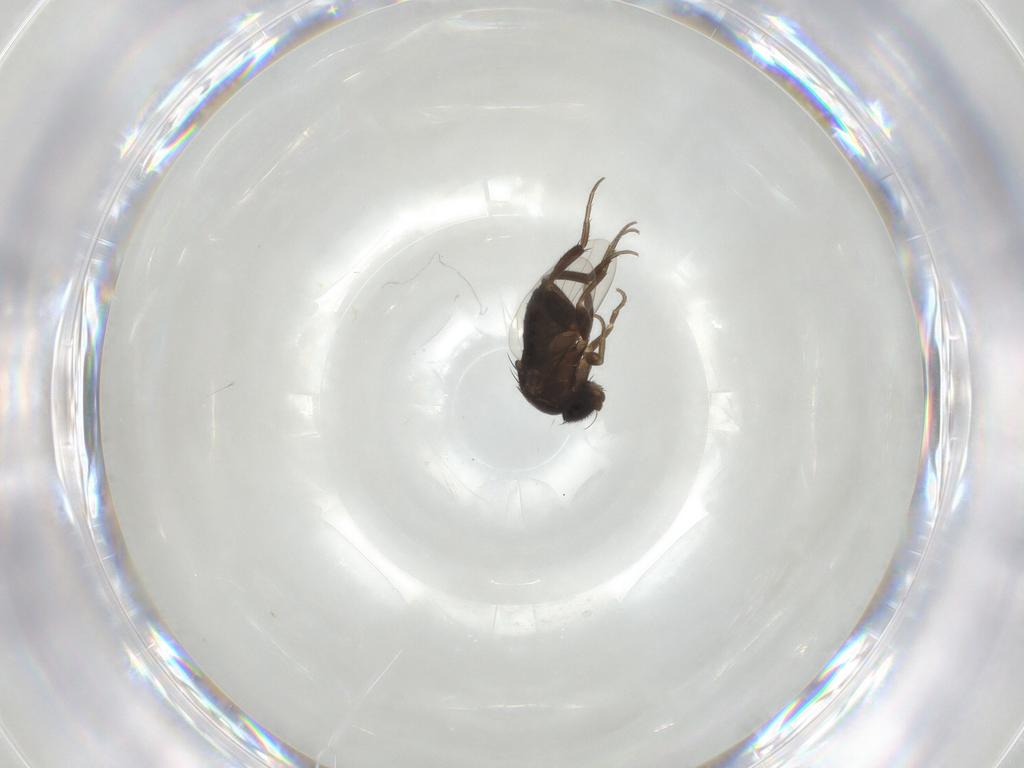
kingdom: Animalia
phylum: Arthropoda
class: Insecta
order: Diptera
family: Phoridae
